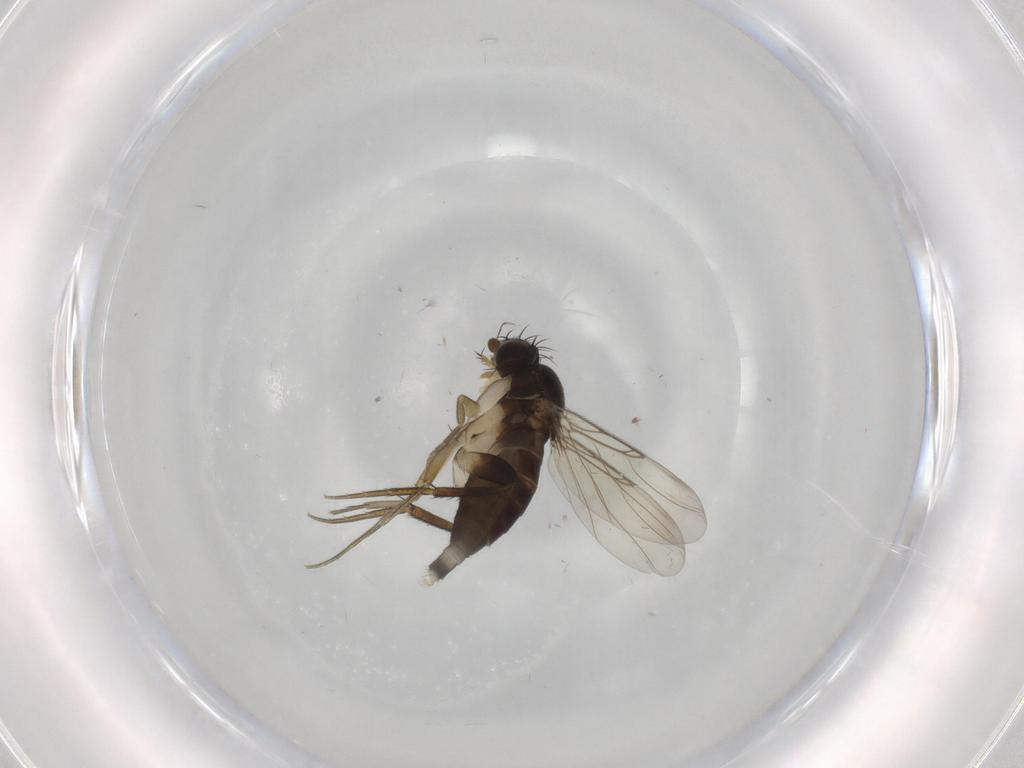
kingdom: Animalia
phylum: Arthropoda
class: Insecta
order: Diptera
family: Phoridae
